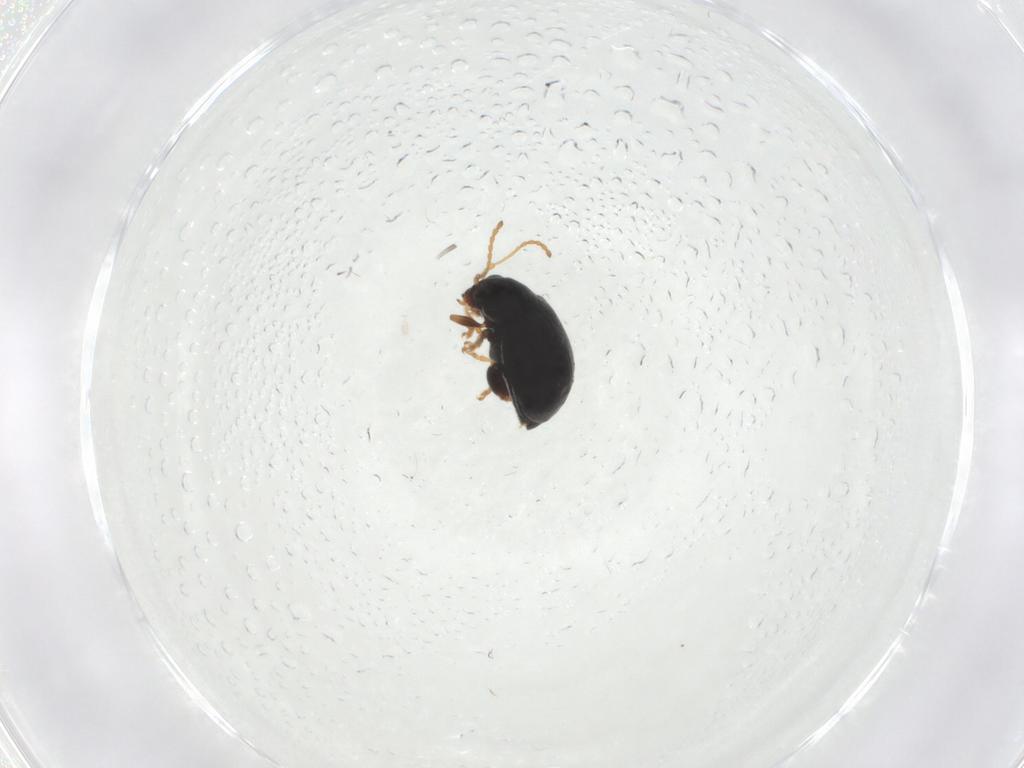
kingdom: Animalia
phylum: Arthropoda
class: Insecta
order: Coleoptera
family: Chrysomelidae
